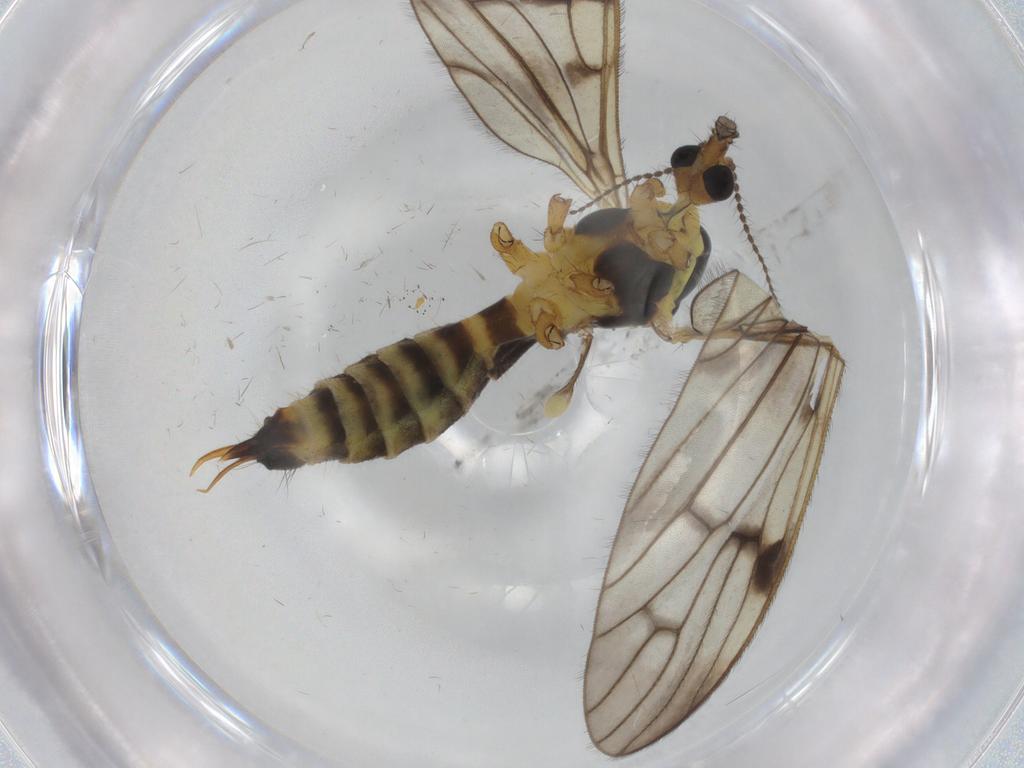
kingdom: Animalia
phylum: Arthropoda
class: Insecta
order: Diptera
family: Limoniidae
